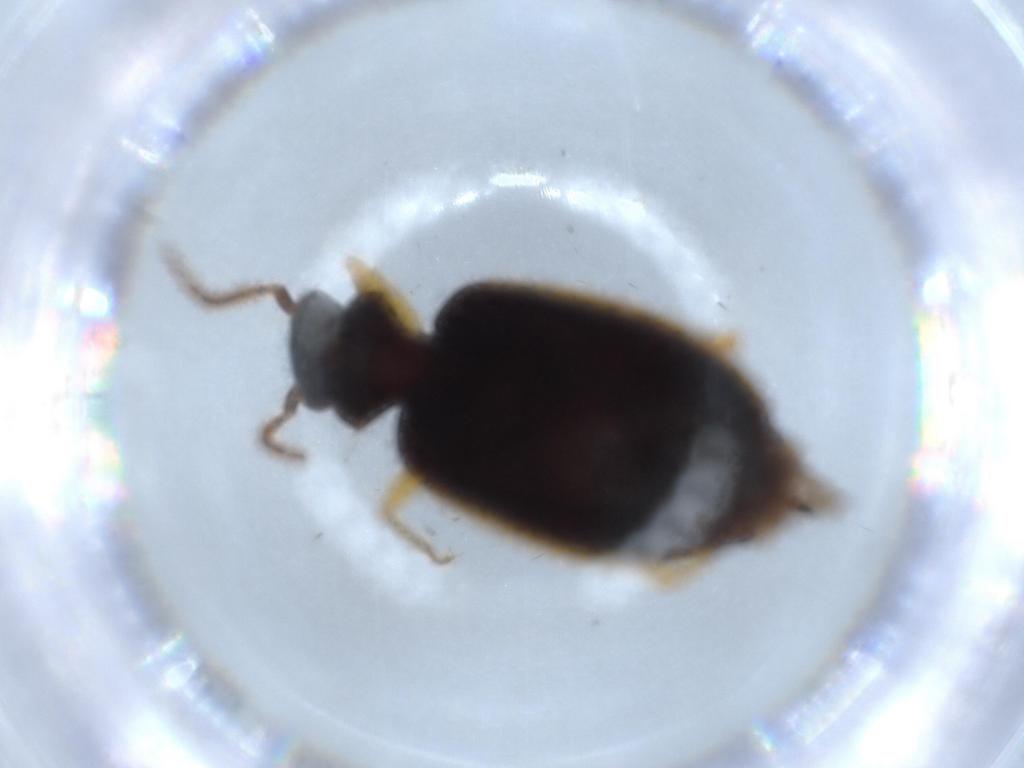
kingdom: Animalia
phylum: Arthropoda
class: Insecta
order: Coleoptera
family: Carabidae
